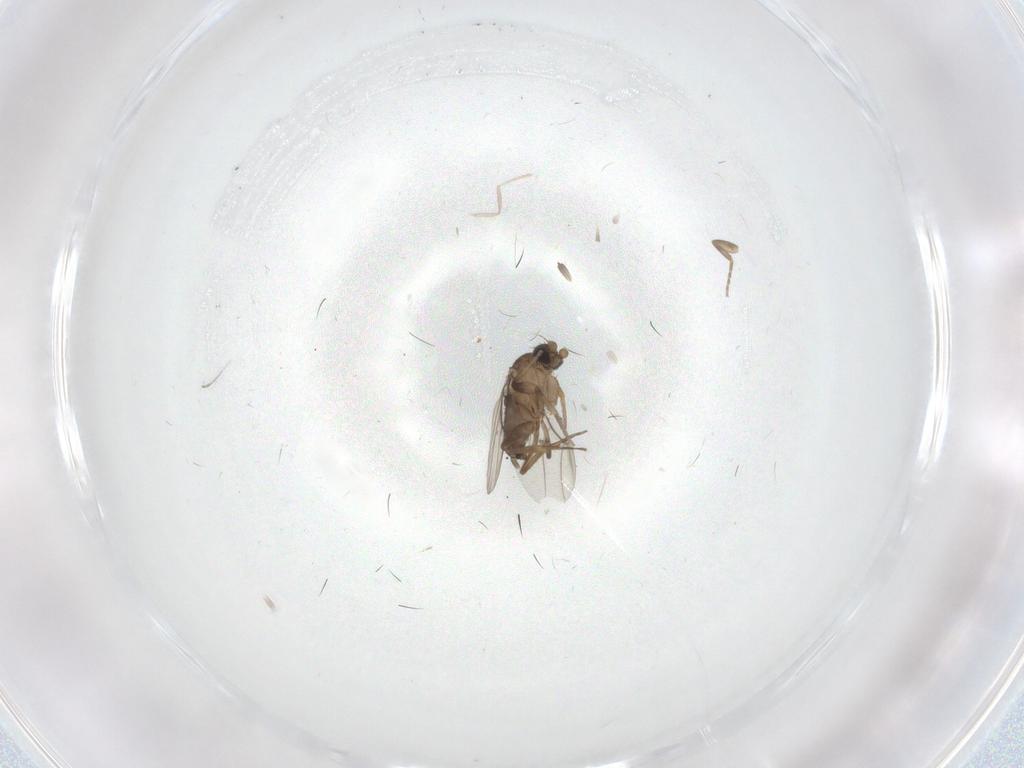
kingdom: Animalia
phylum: Arthropoda
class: Insecta
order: Diptera
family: Cecidomyiidae
